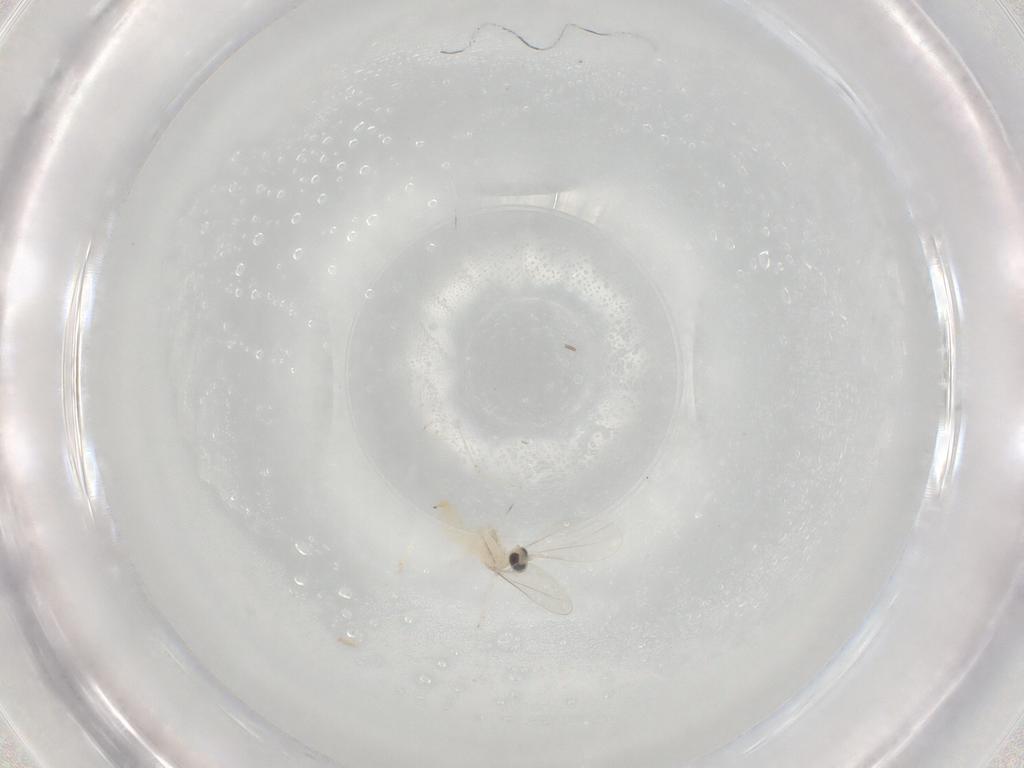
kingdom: Animalia
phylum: Arthropoda
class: Insecta
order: Diptera
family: Cecidomyiidae
